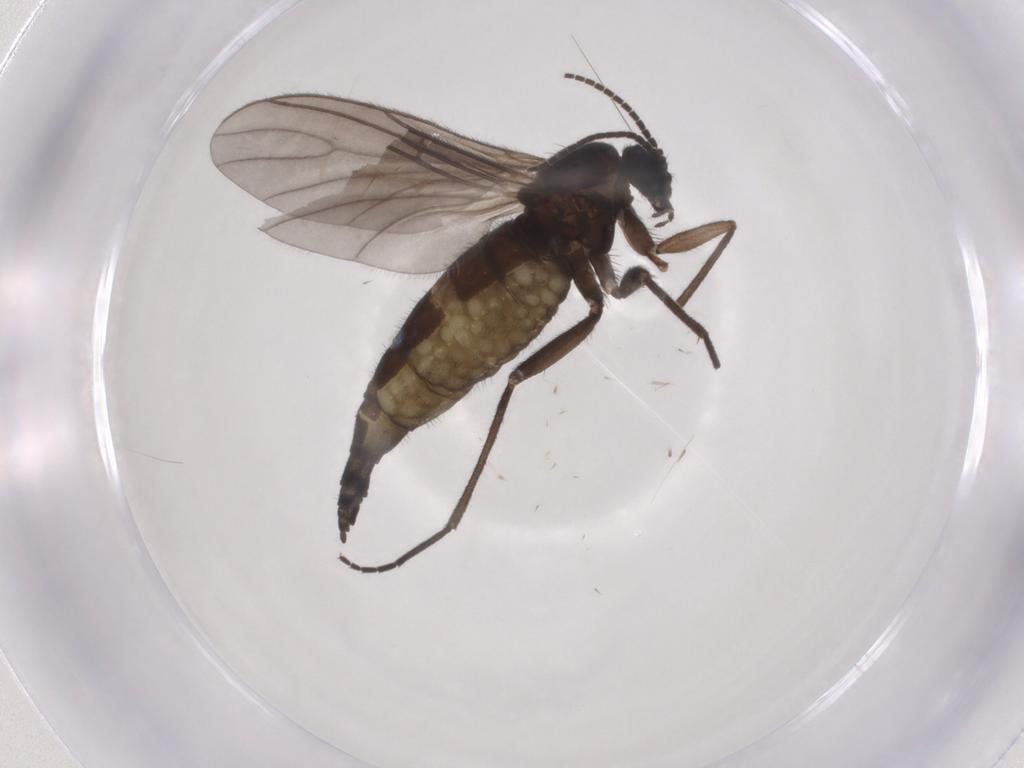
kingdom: Animalia
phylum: Arthropoda
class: Insecta
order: Diptera
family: Sciaridae
